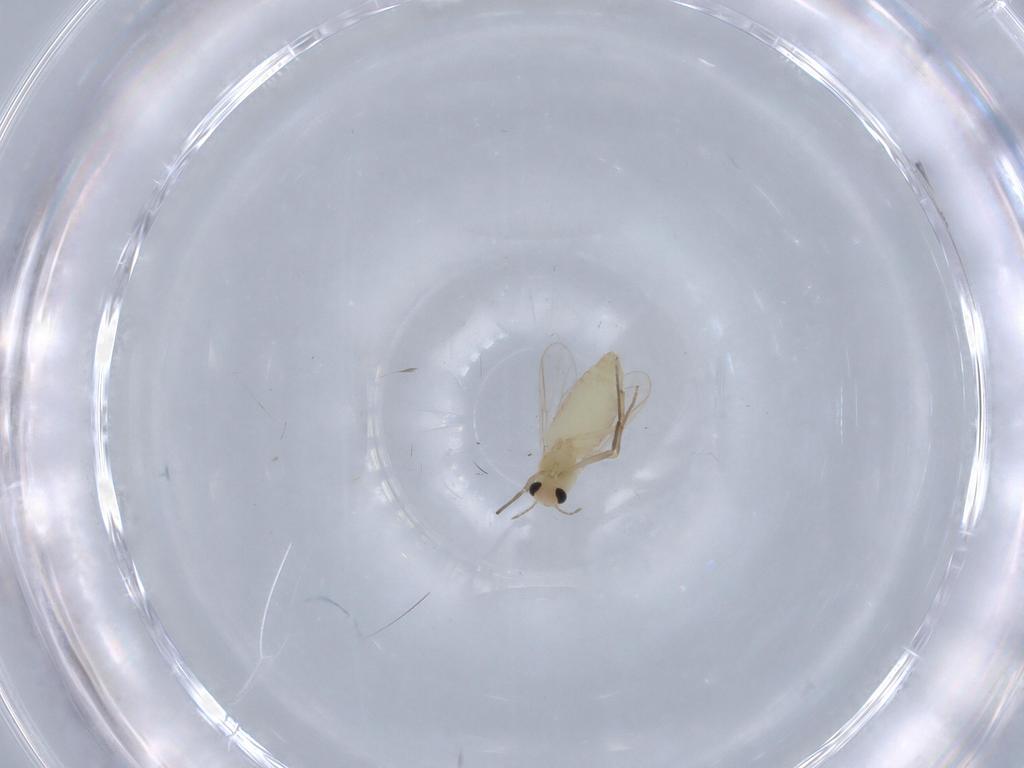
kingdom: Animalia
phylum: Arthropoda
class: Insecta
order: Diptera
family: Chironomidae
